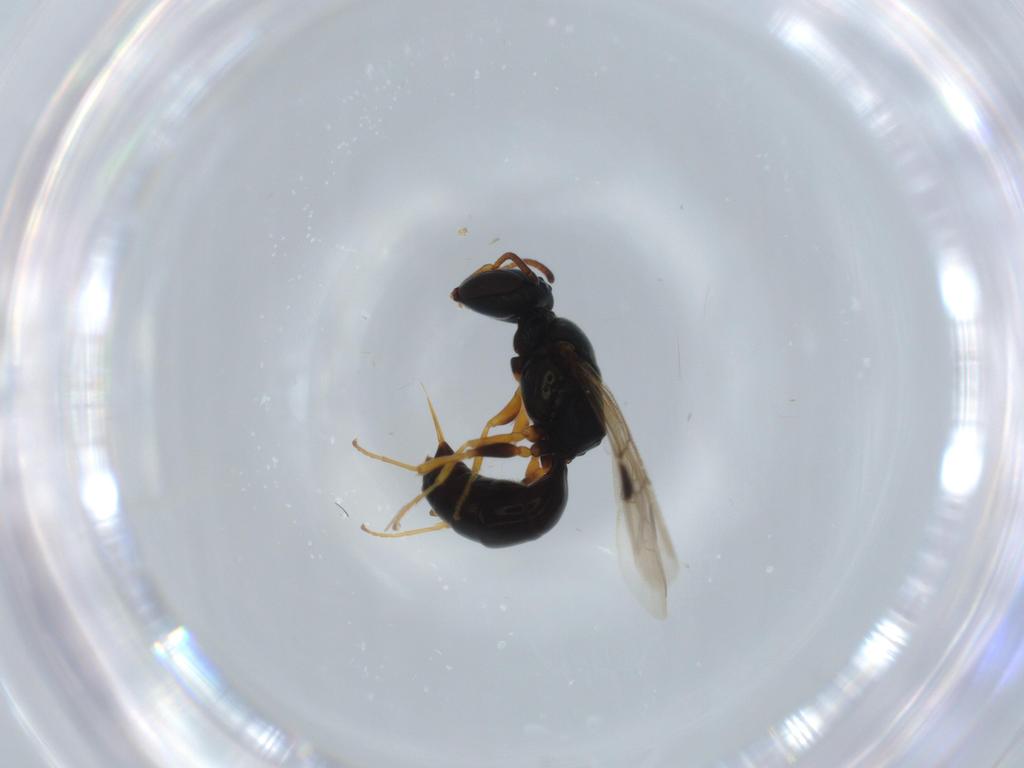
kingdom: Animalia
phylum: Arthropoda
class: Insecta
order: Hymenoptera
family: Pemphredonidae
